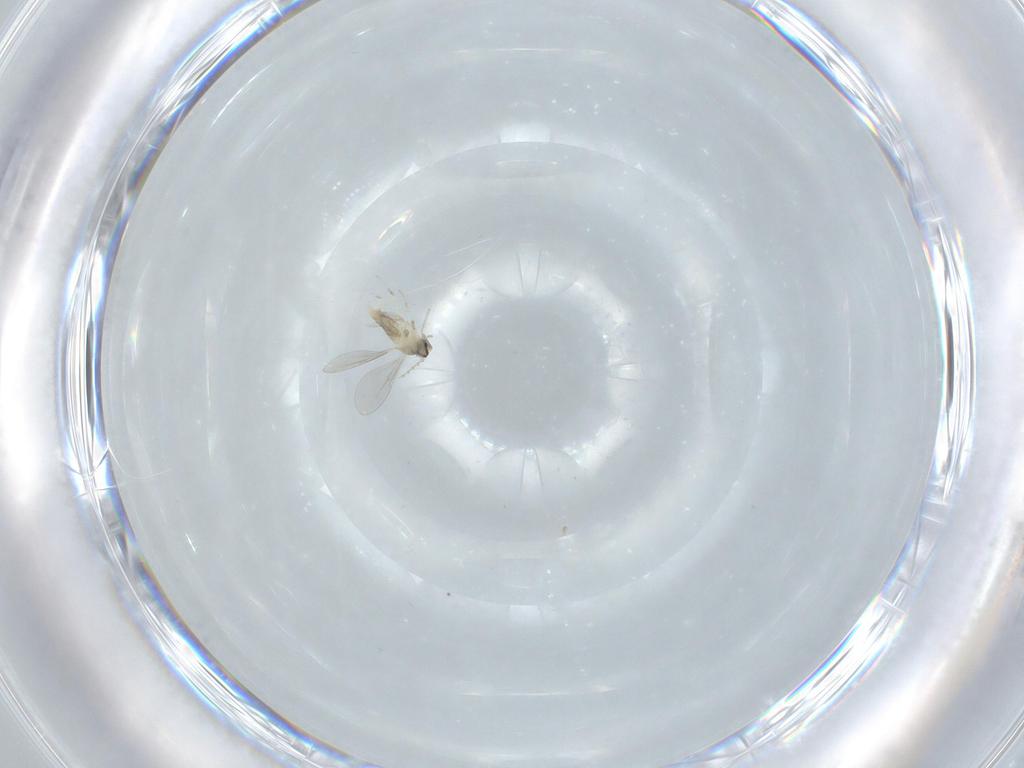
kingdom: Animalia
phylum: Arthropoda
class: Insecta
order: Diptera
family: Cecidomyiidae
